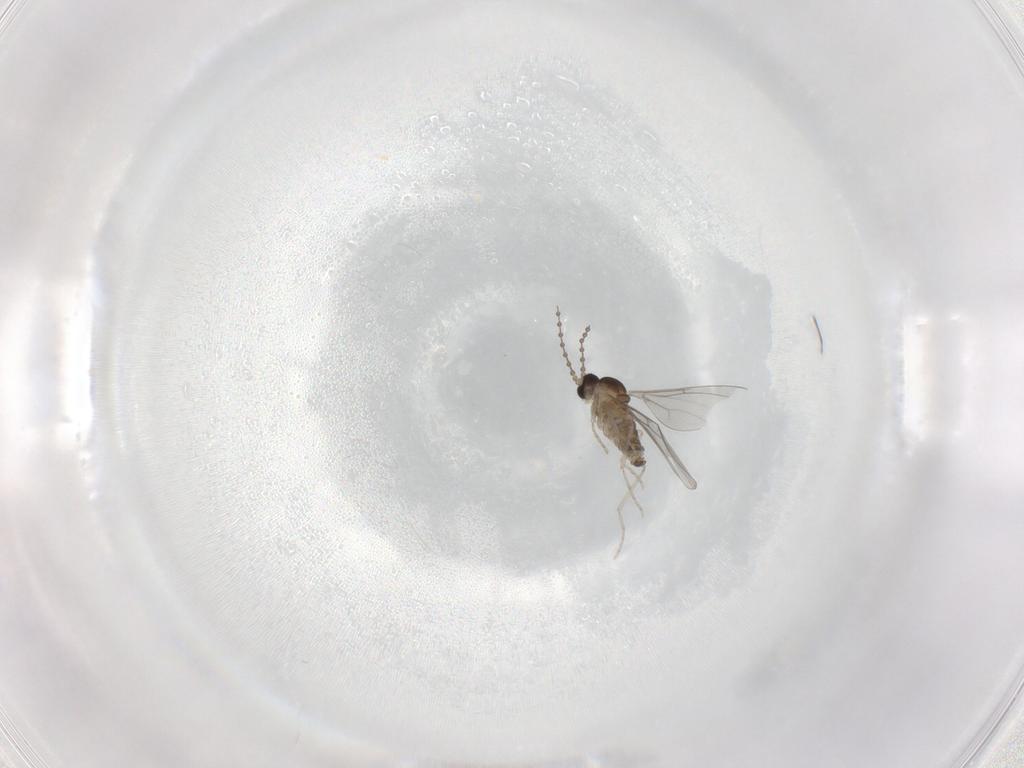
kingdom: Animalia
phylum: Arthropoda
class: Insecta
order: Diptera
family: Cecidomyiidae
